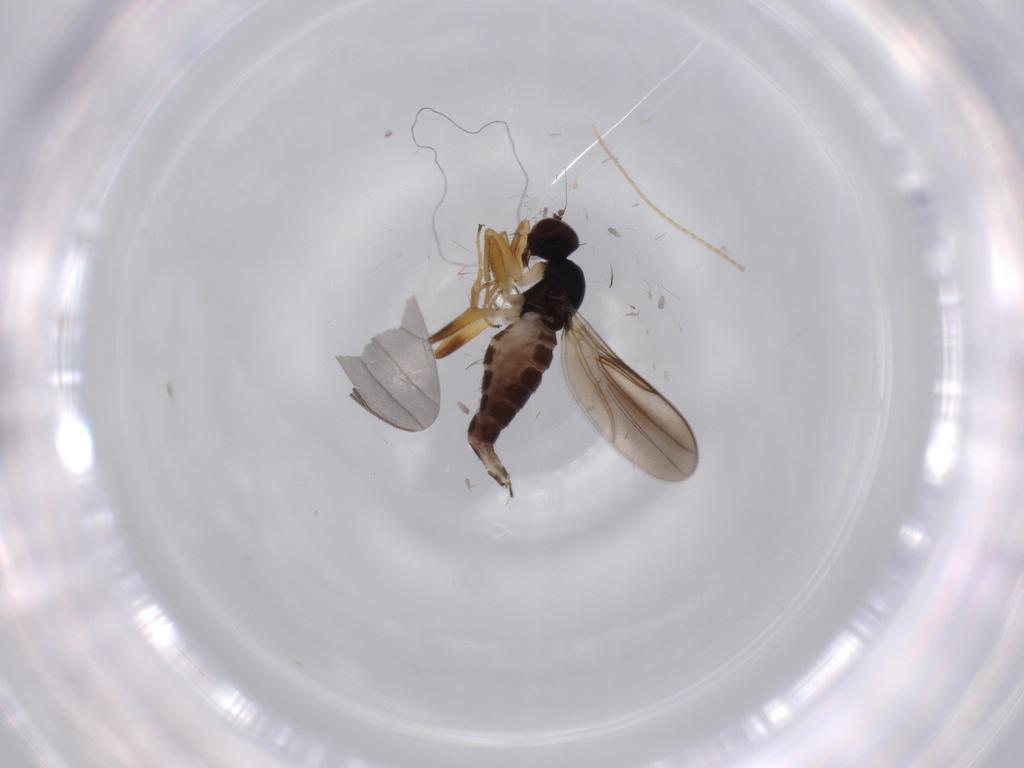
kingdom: Animalia
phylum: Arthropoda
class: Insecta
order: Diptera
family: Hybotidae
